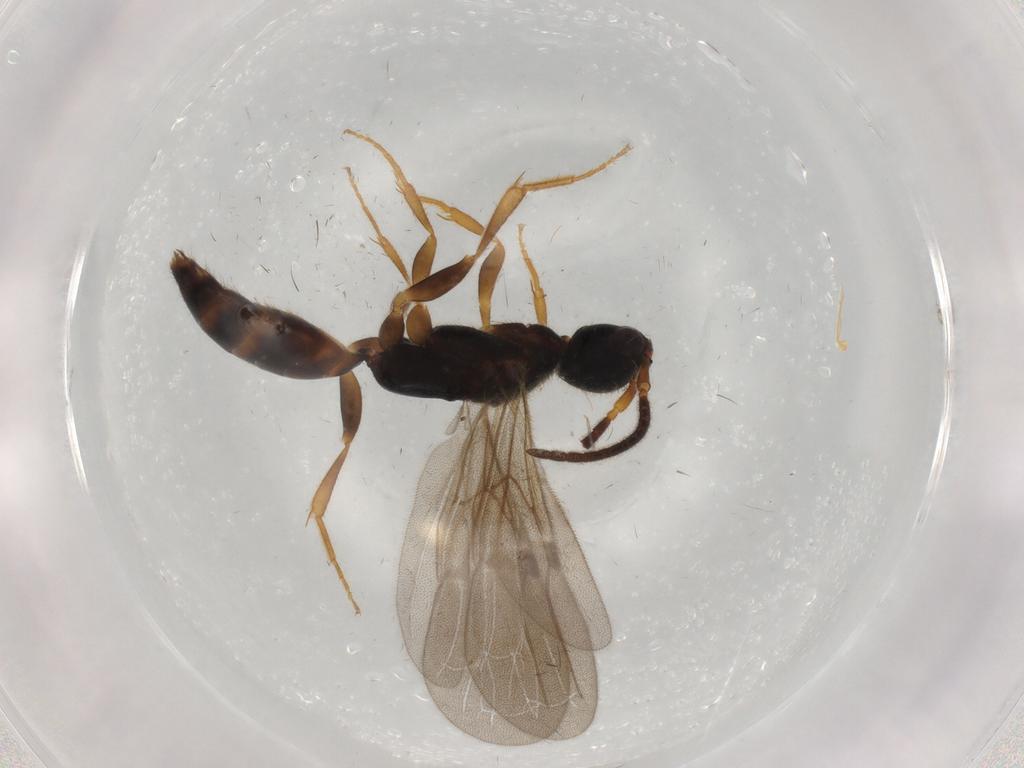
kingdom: Animalia
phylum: Arthropoda
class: Insecta
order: Hymenoptera
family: Bethylidae
